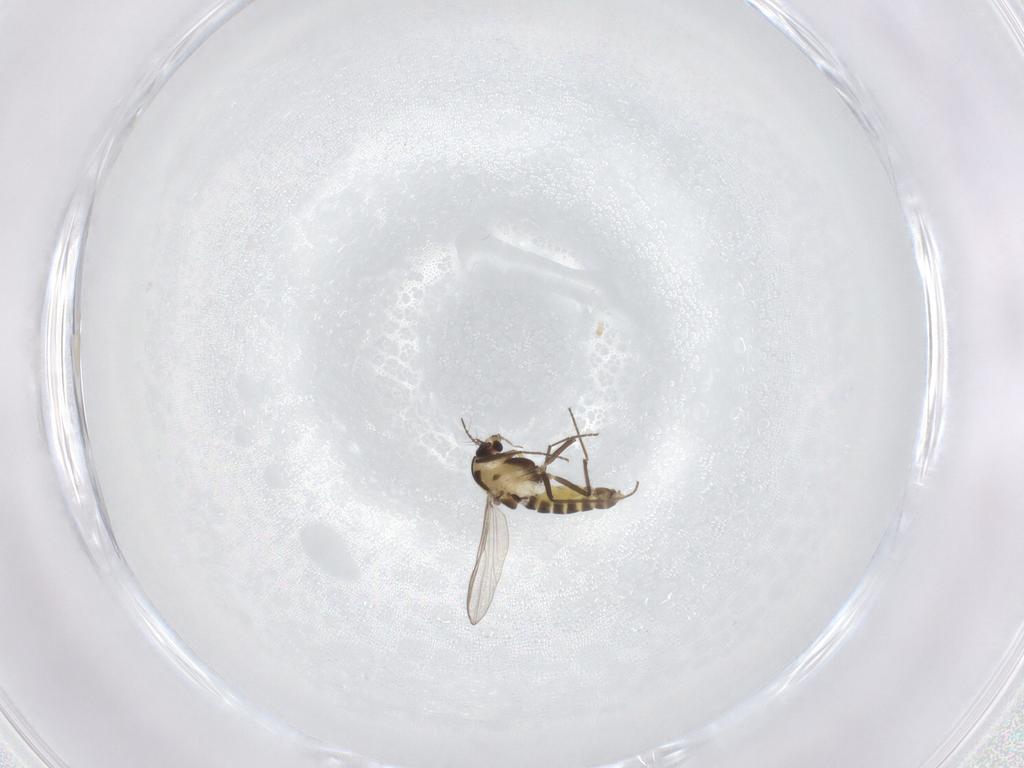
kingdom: Animalia
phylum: Arthropoda
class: Insecta
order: Diptera
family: Chironomidae
